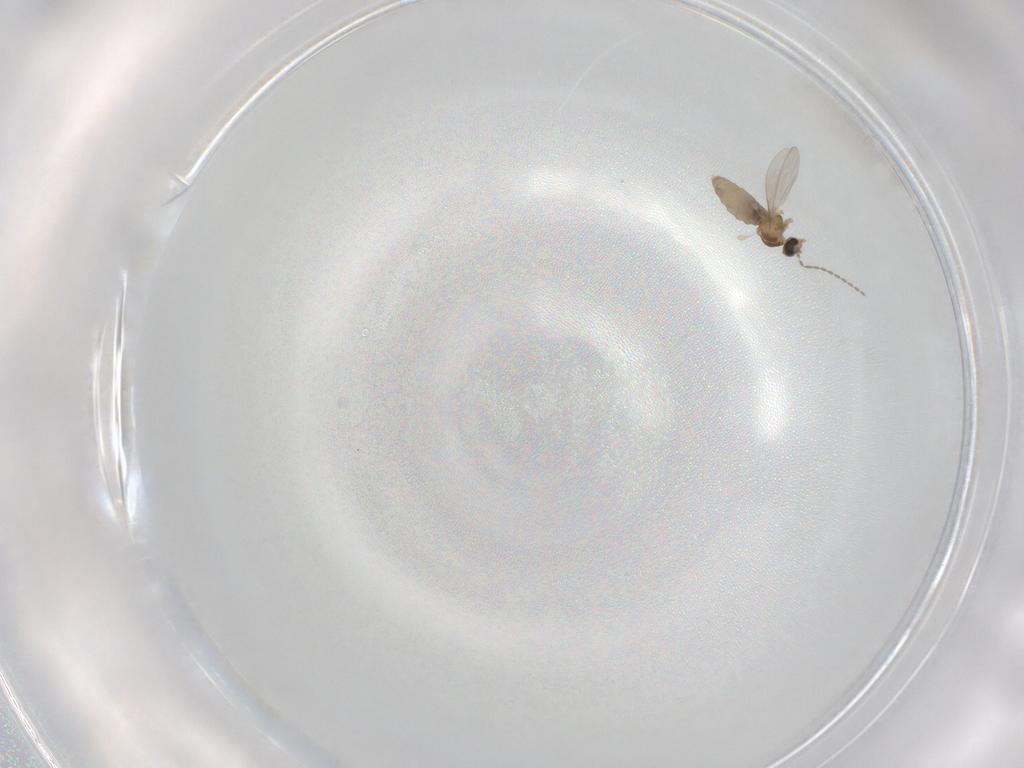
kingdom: Animalia
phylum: Arthropoda
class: Insecta
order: Diptera
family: Cecidomyiidae
